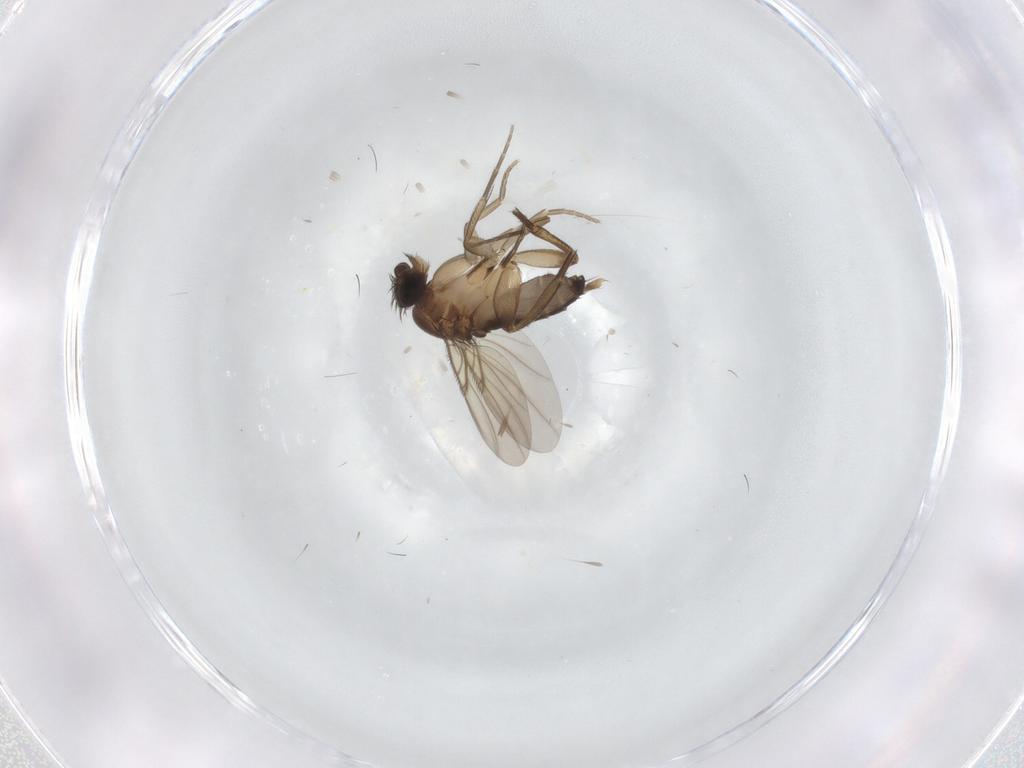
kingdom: Animalia
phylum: Arthropoda
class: Insecta
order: Diptera
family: Phoridae
